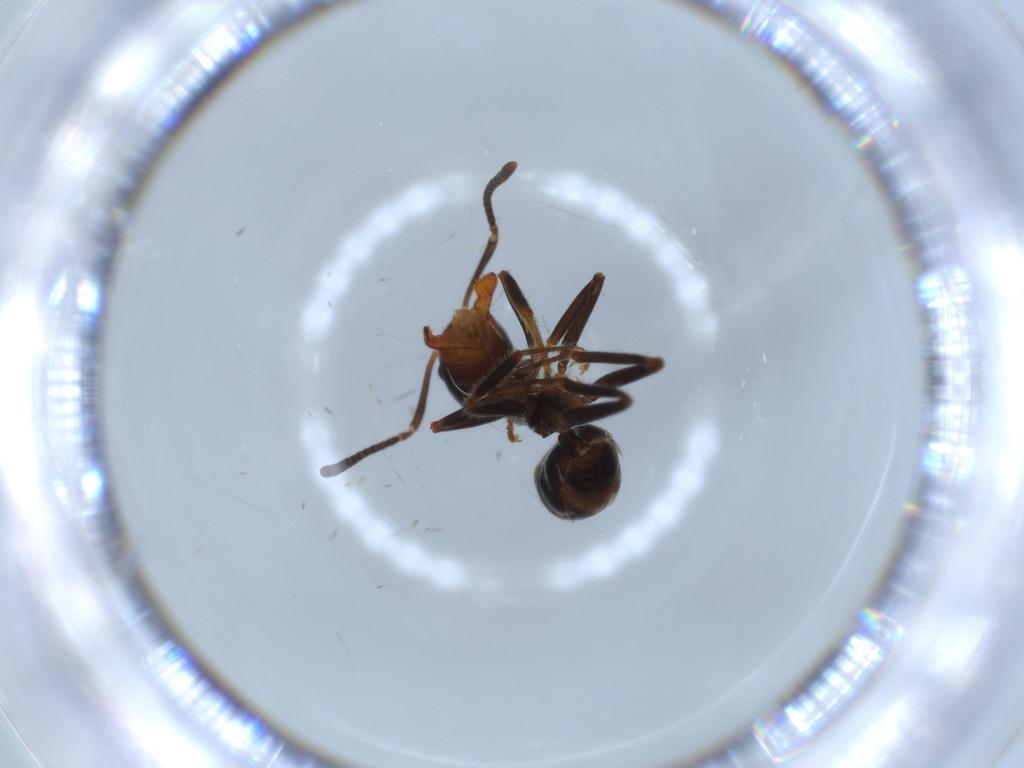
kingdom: Animalia
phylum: Arthropoda
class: Insecta
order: Hymenoptera
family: Formicidae
